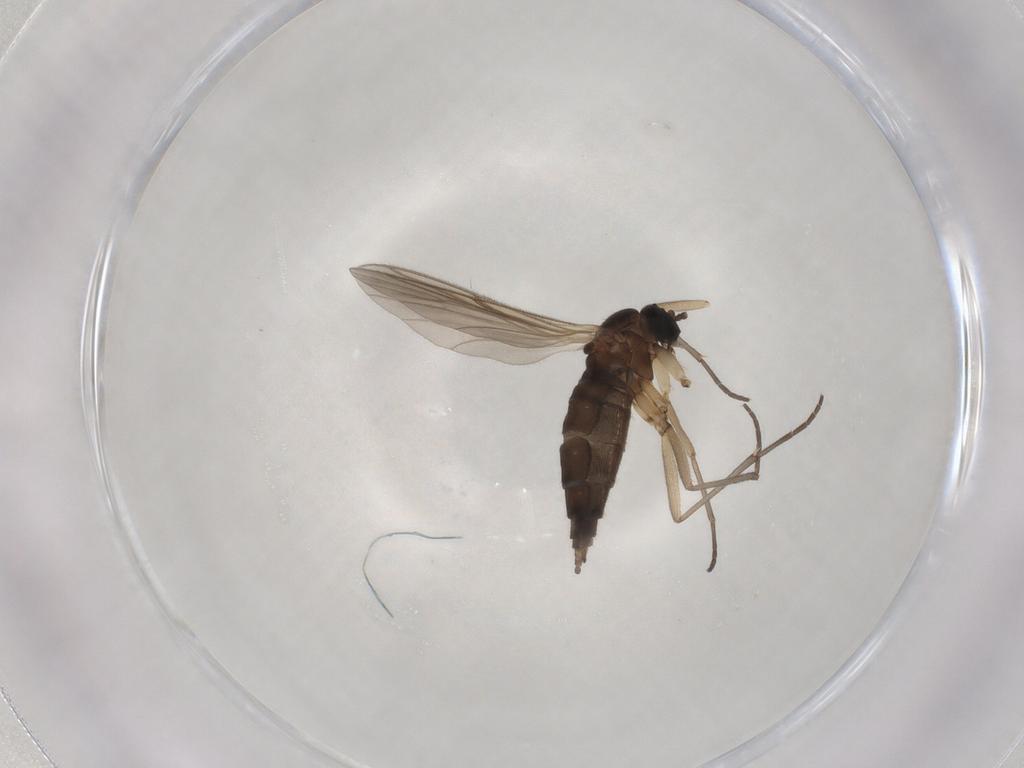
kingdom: Animalia
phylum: Arthropoda
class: Insecta
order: Diptera
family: Sciaridae
